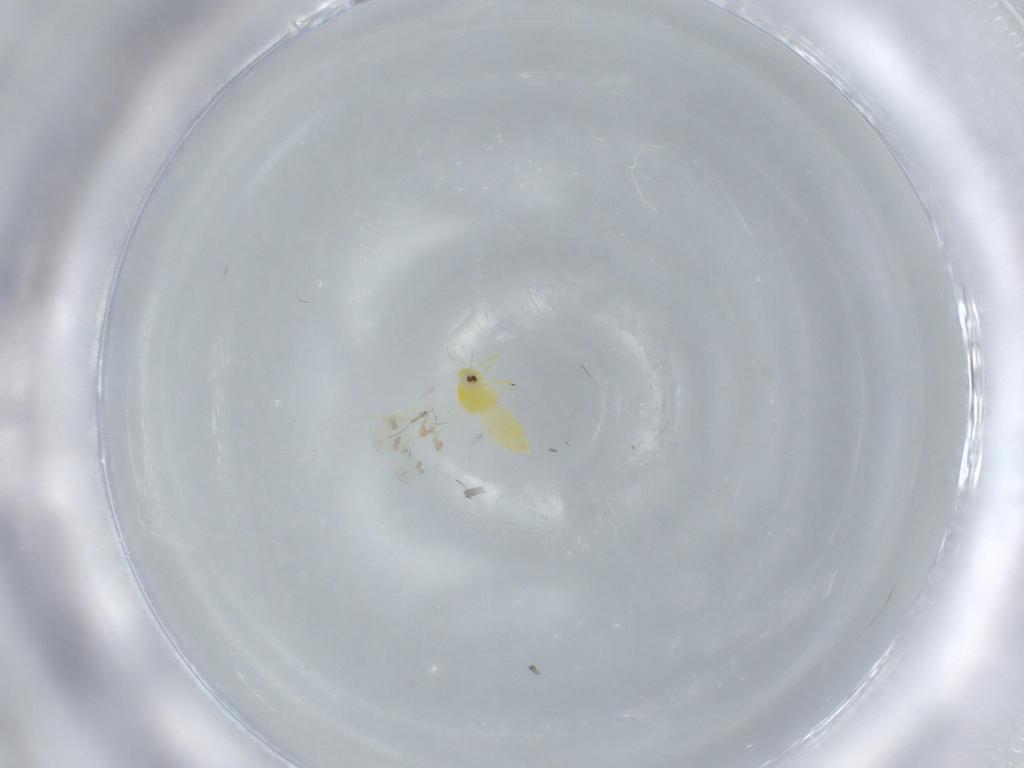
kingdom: Animalia
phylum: Arthropoda
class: Insecta
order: Hemiptera
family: Aleyrodidae
